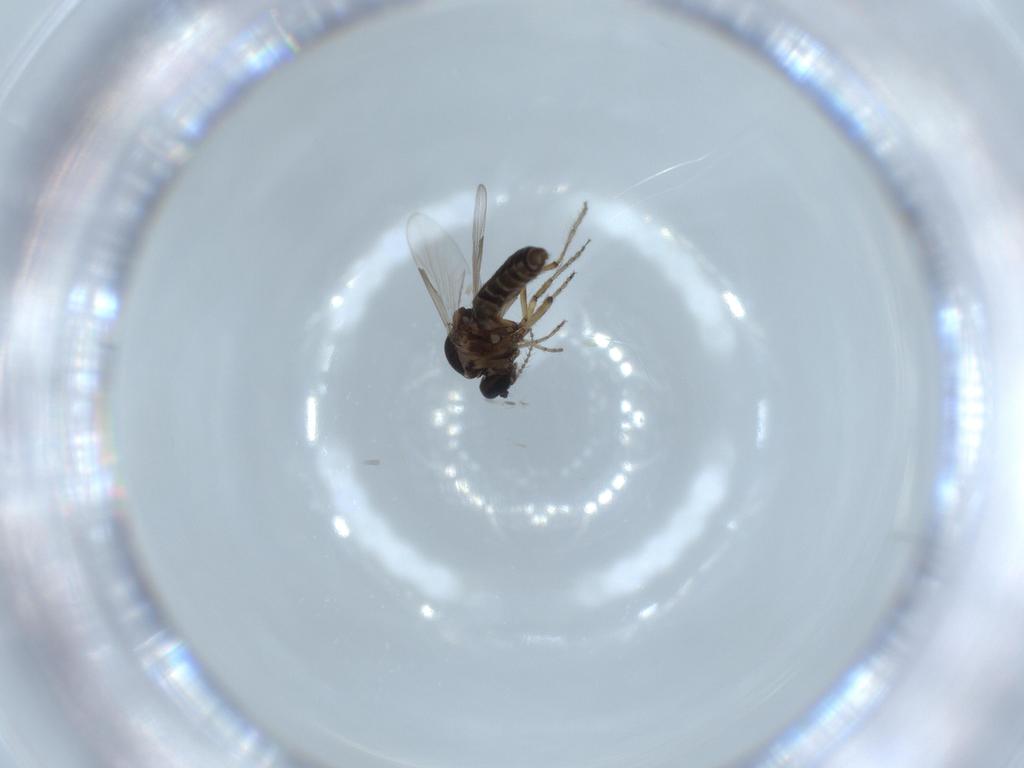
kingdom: Animalia
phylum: Arthropoda
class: Insecta
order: Diptera
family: Ceratopogonidae
